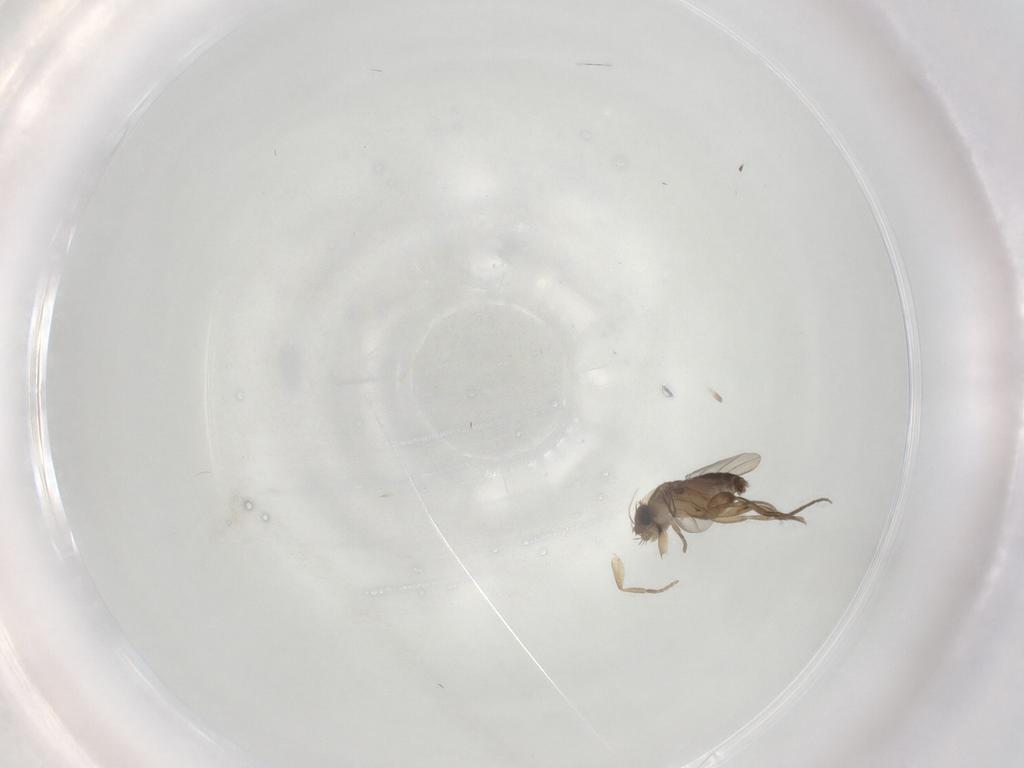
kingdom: Animalia
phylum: Arthropoda
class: Insecta
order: Diptera
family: Phoridae
